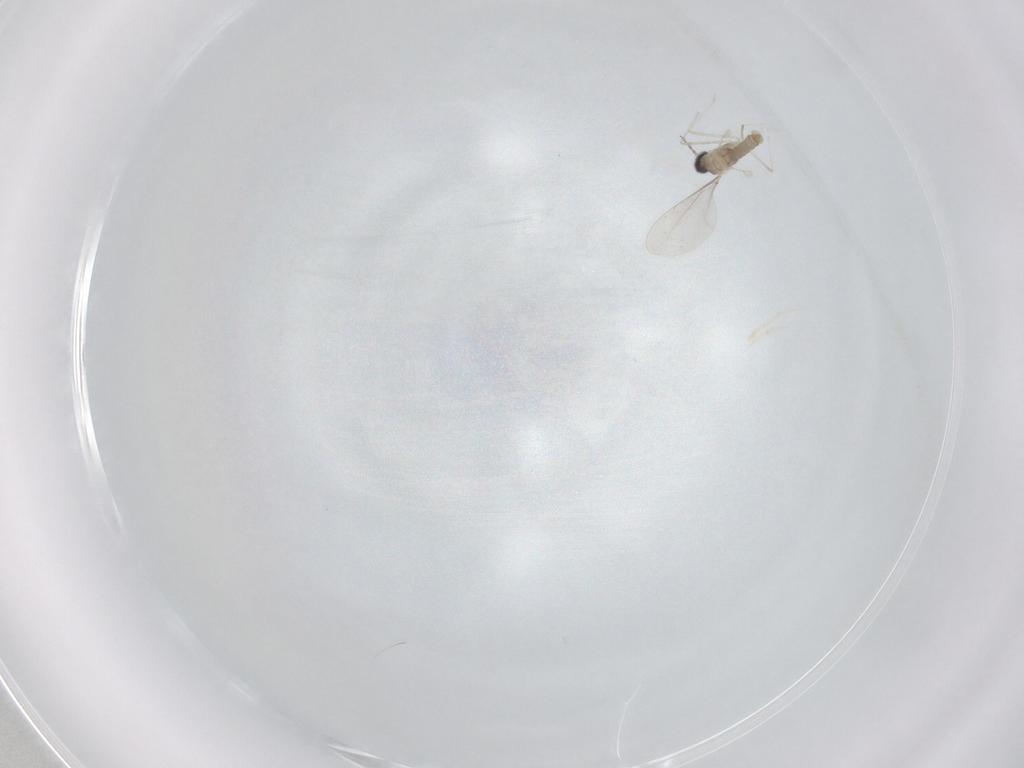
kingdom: Animalia
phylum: Arthropoda
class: Insecta
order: Diptera
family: Cecidomyiidae
